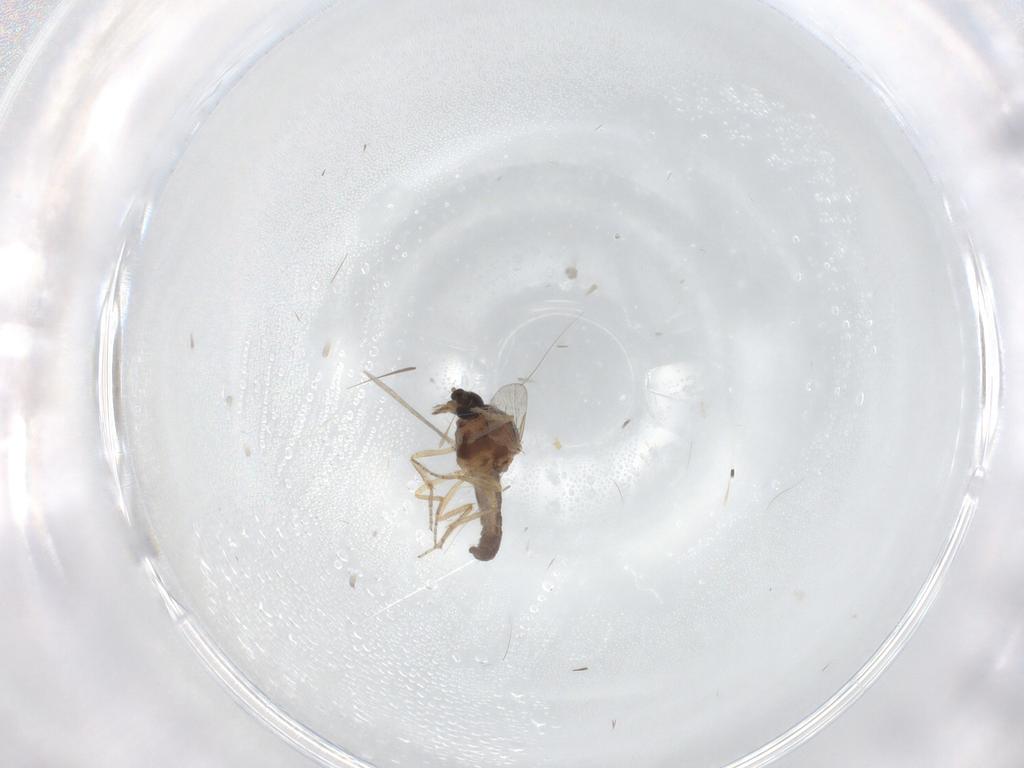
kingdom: Animalia
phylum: Arthropoda
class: Insecta
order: Diptera
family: Ceratopogonidae
